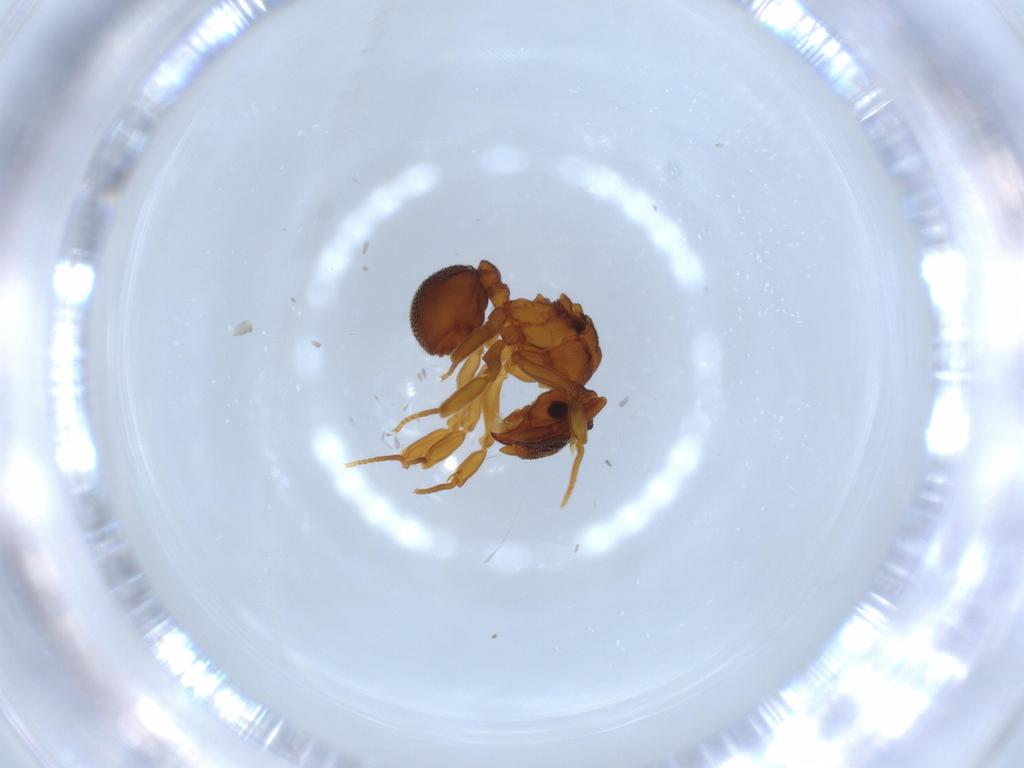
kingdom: Animalia
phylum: Arthropoda
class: Insecta
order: Hymenoptera
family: Formicidae
